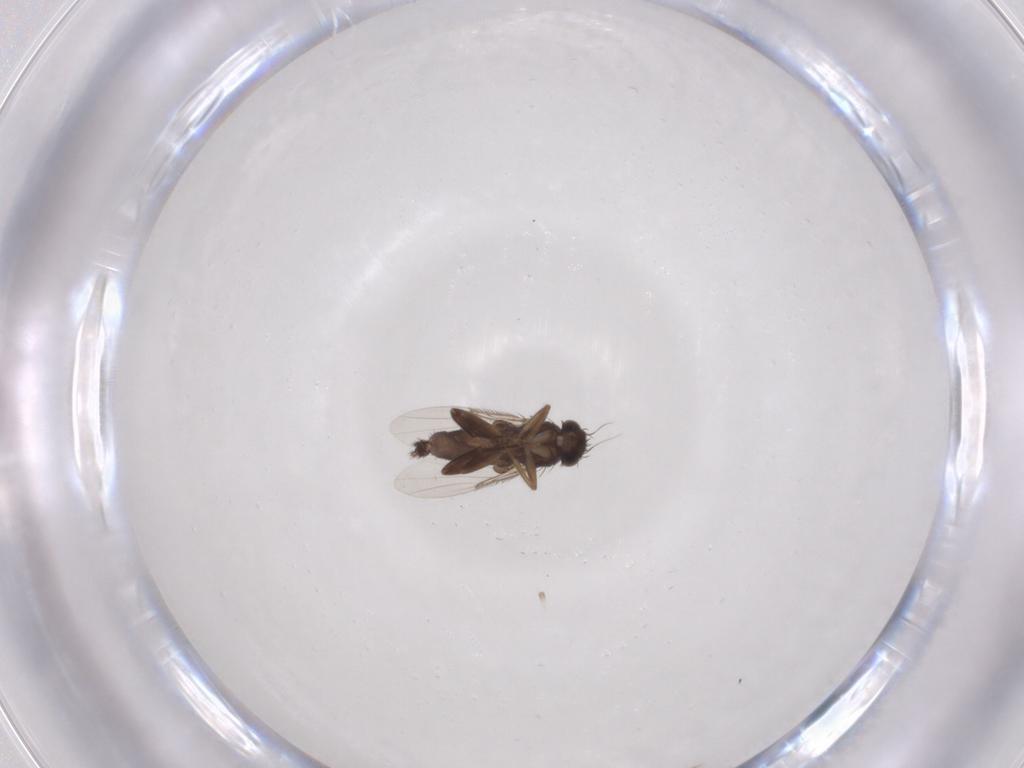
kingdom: Animalia
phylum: Arthropoda
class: Insecta
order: Diptera
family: Phoridae
